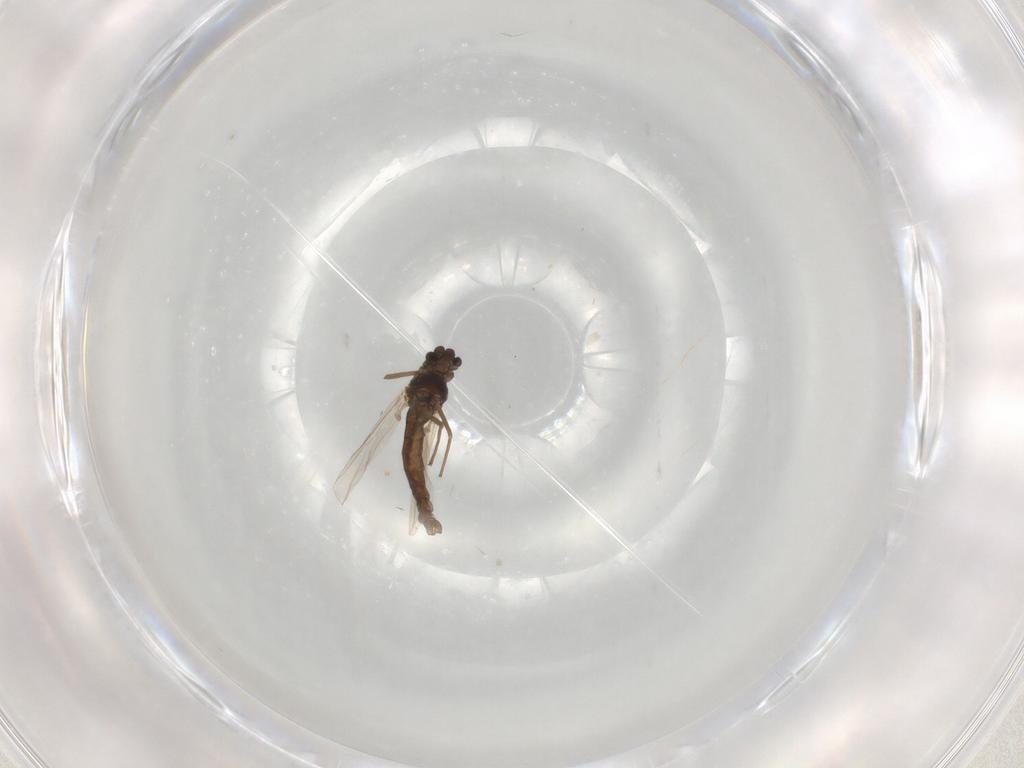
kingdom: Animalia
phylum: Arthropoda
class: Insecta
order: Diptera
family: Chironomidae
